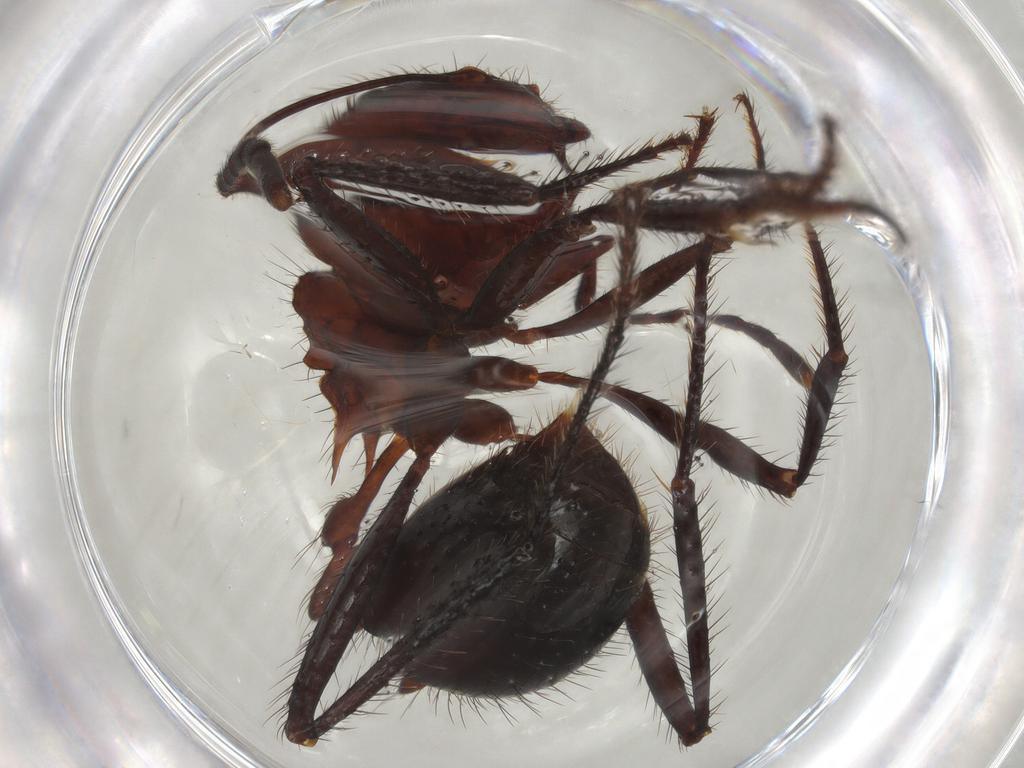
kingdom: Animalia
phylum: Arthropoda
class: Insecta
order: Hymenoptera
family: Formicidae
